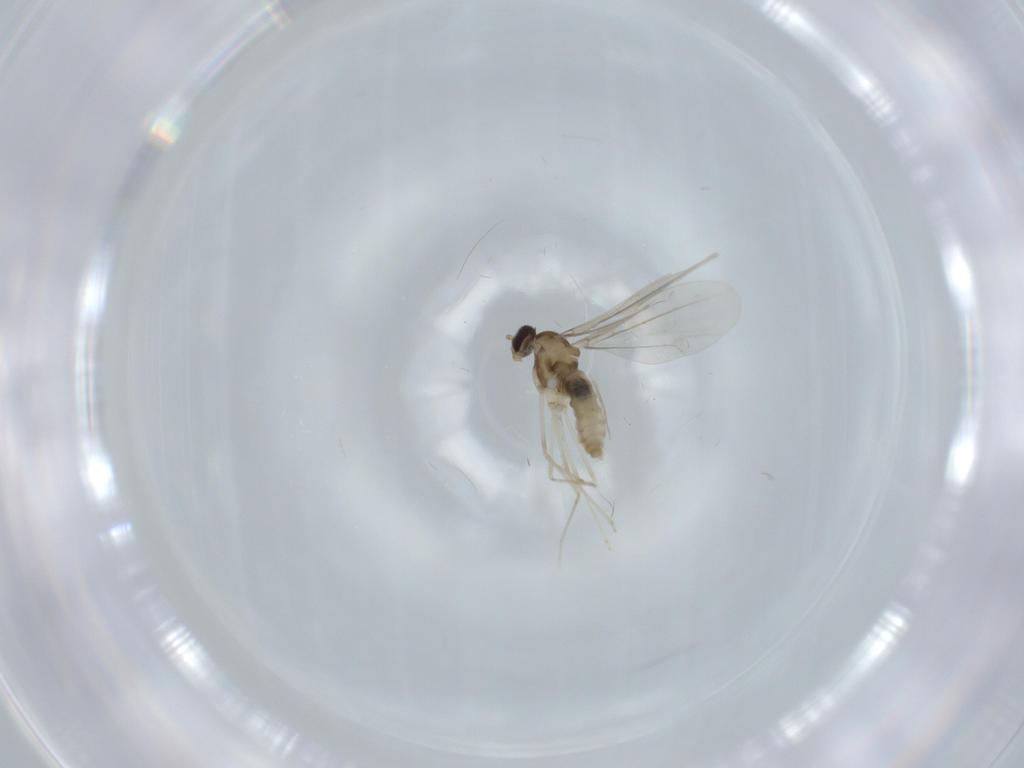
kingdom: Animalia
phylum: Arthropoda
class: Insecta
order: Diptera
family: Cecidomyiidae
